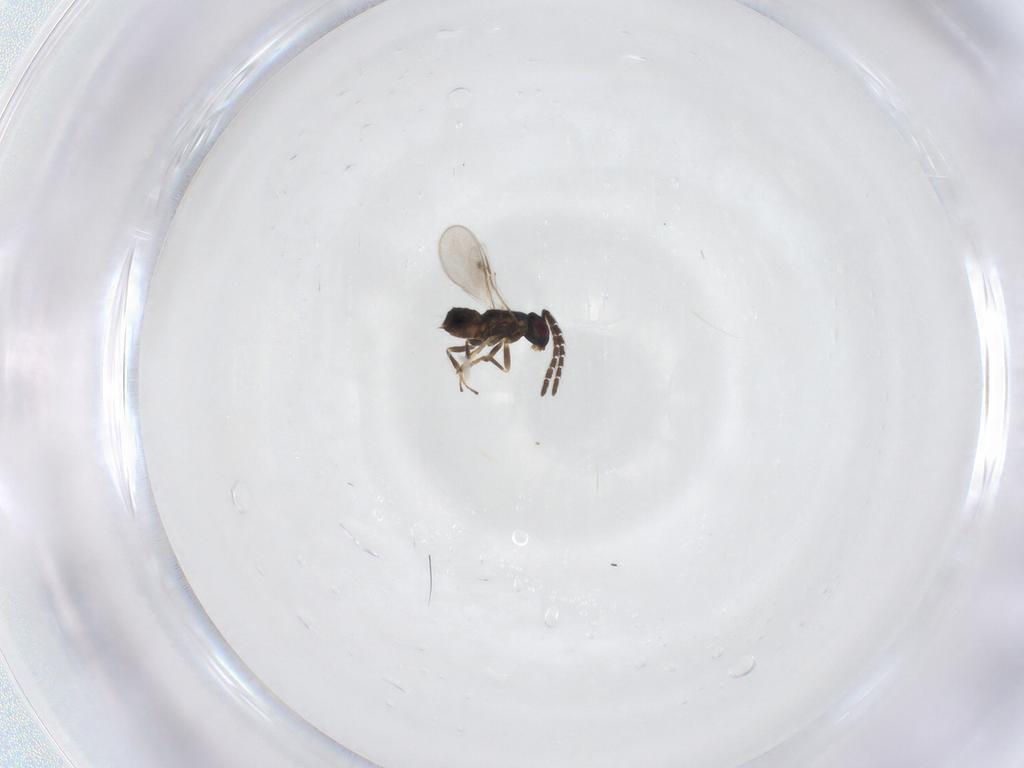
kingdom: Animalia
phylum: Arthropoda
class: Insecta
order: Hymenoptera
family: Encyrtidae
